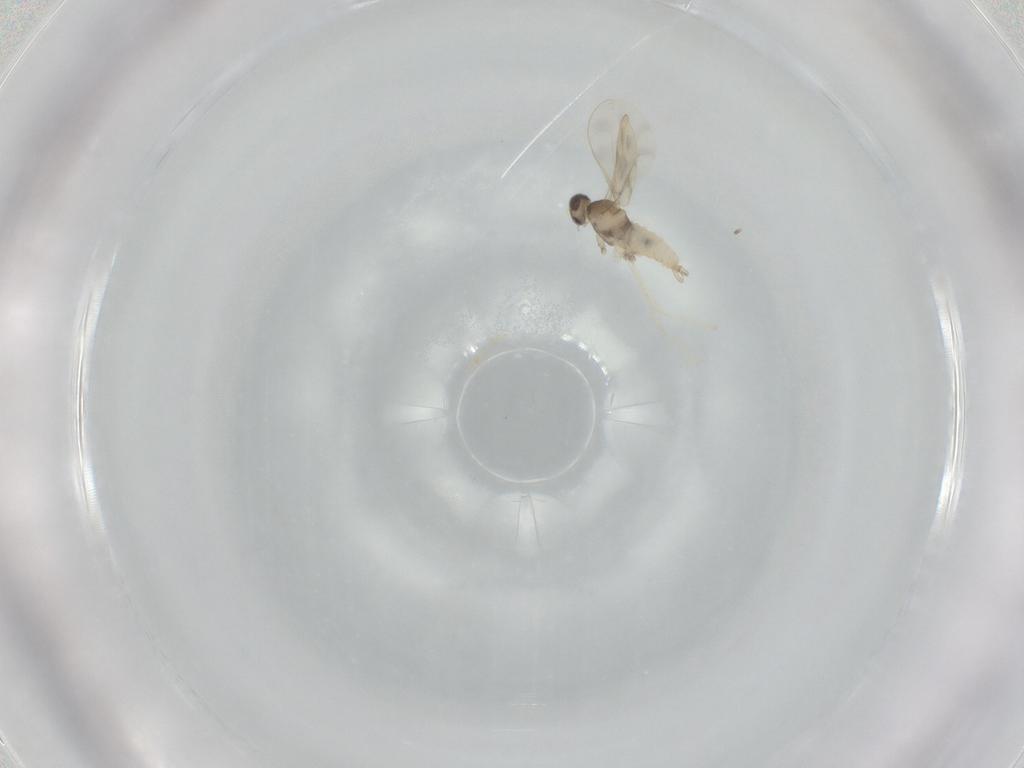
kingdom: Animalia
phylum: Arthropoda
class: Insecta
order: Diptera
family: Cecidomyiidae
